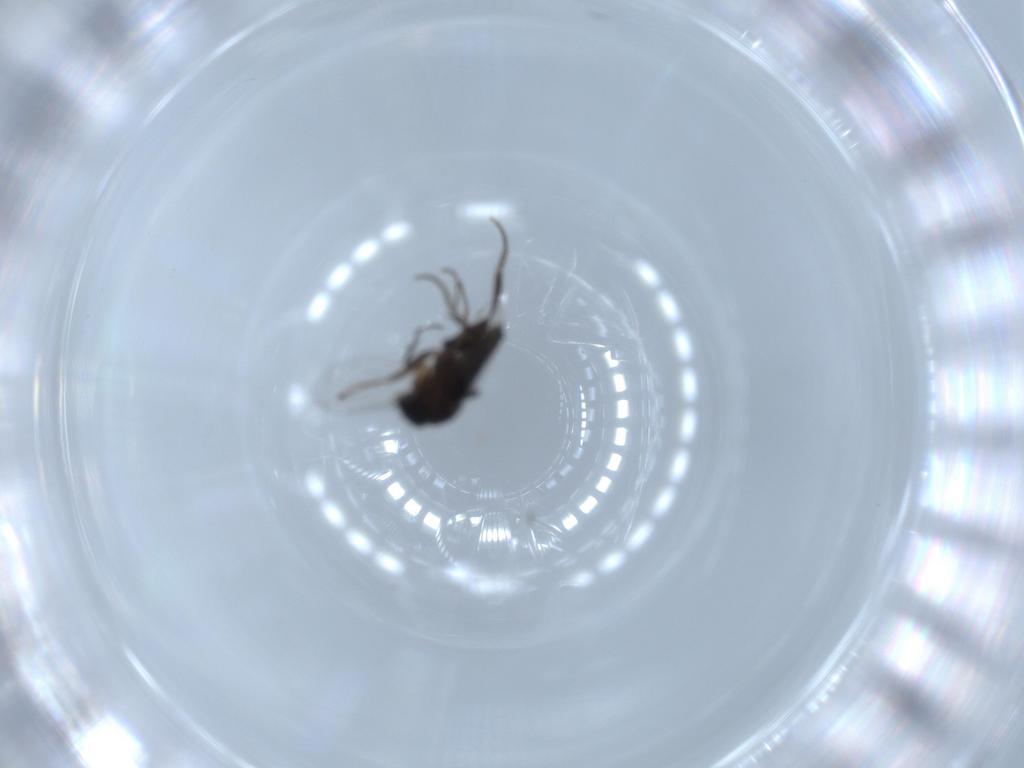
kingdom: Animalia
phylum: Arthropoda
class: Insecta
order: Diptera
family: Phoridae
